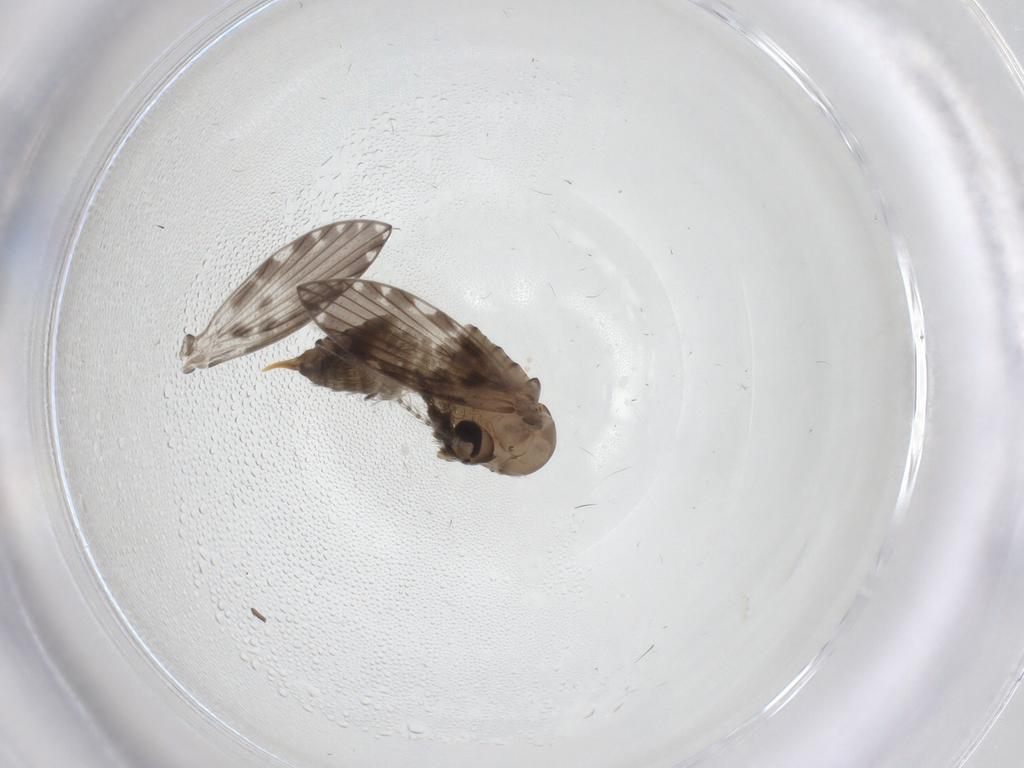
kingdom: Animalia
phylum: Arthropoda
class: Insecta
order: Diptera
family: Psychodidae
